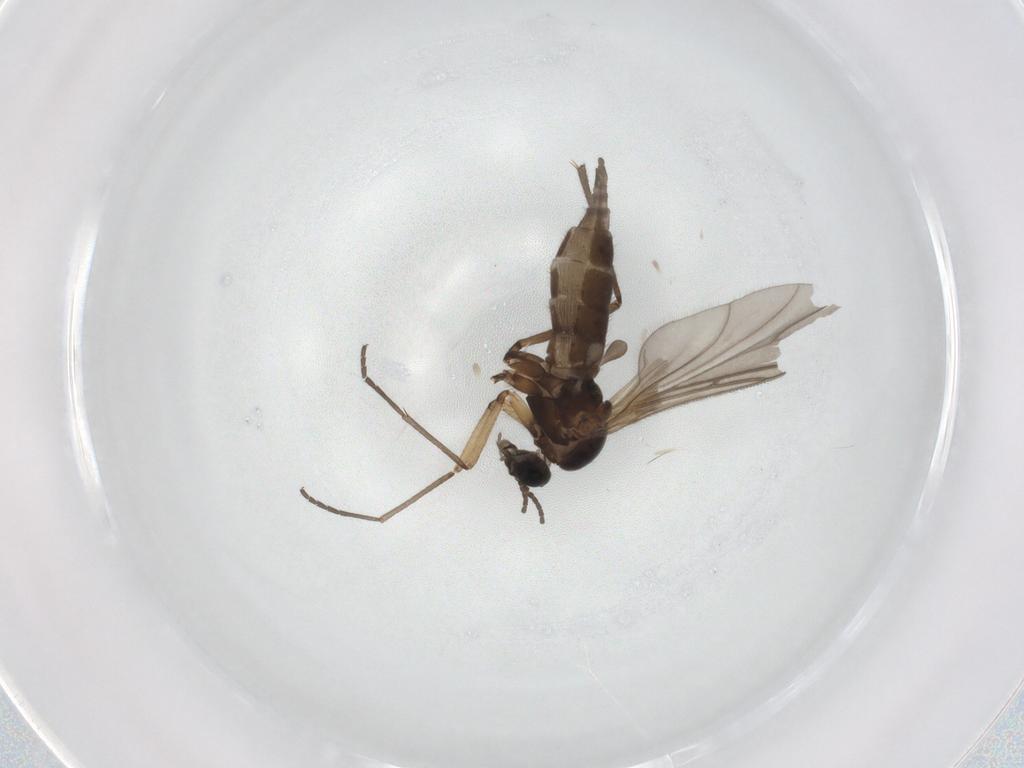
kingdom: Animalia
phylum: Arthropoda
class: Insecta
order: Diptera
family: Sciaridae
